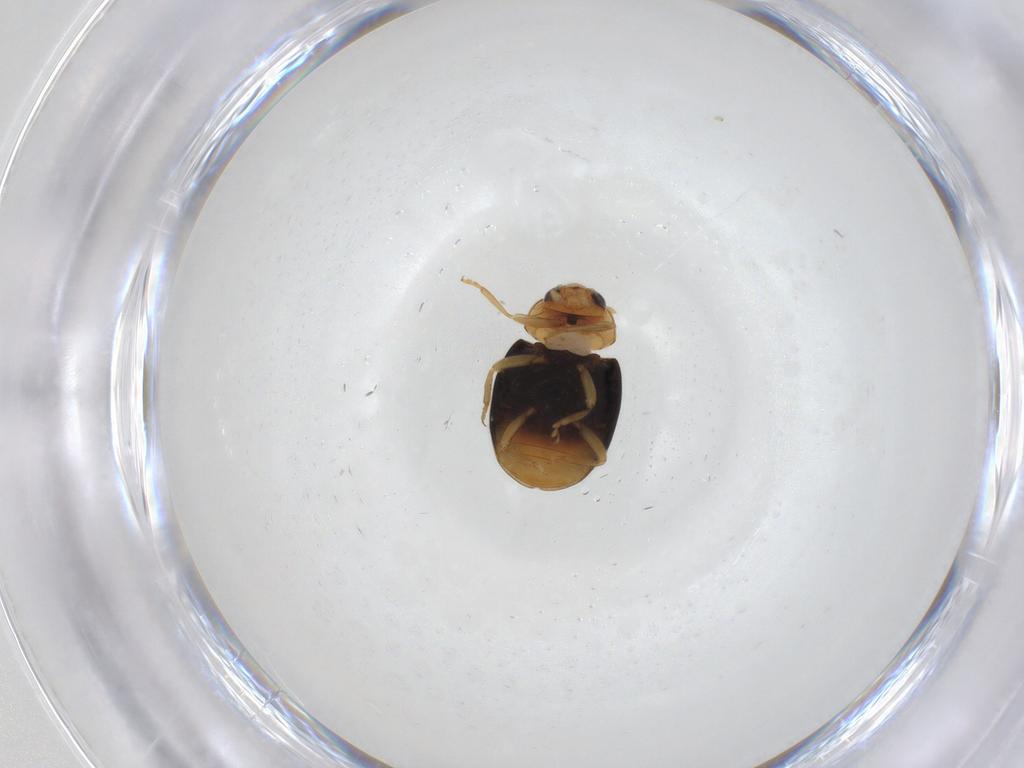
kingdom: Animalia
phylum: Arthropoda
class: Insecta
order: Coleoptera
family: Coccinellidae
